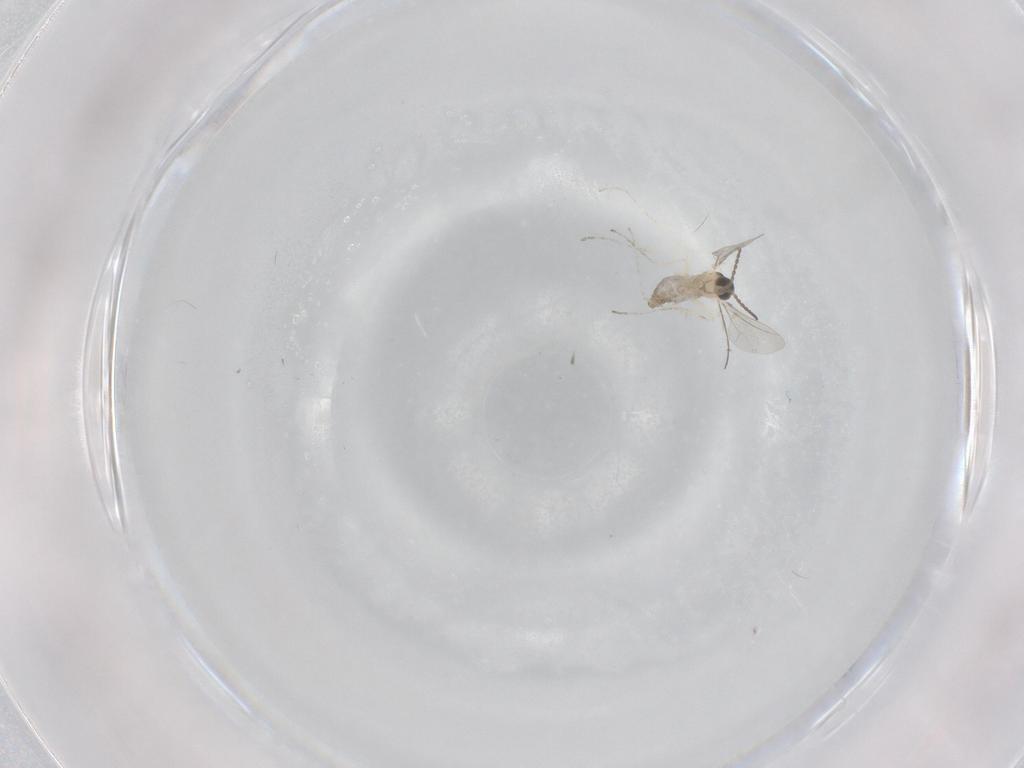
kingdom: Animalia
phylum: Arthropoda
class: Insecta
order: Diptera
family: Cecidomyiidae
